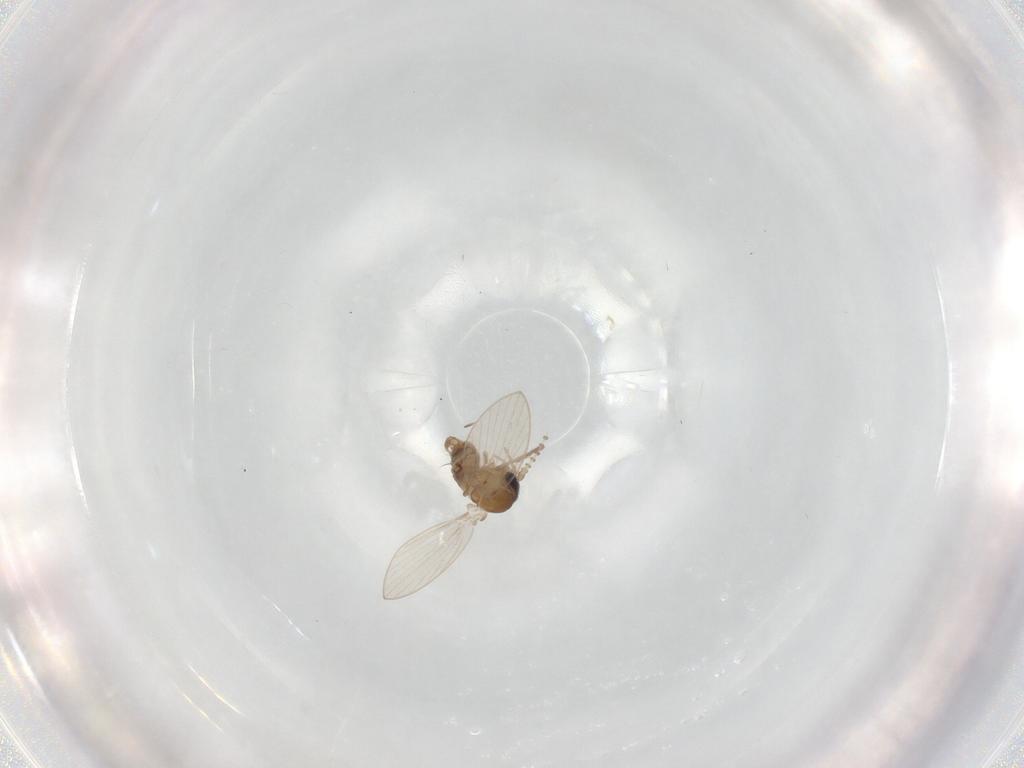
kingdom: Animalia
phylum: Arthropoda
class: Insecta
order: Diptera
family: Psychodidae
